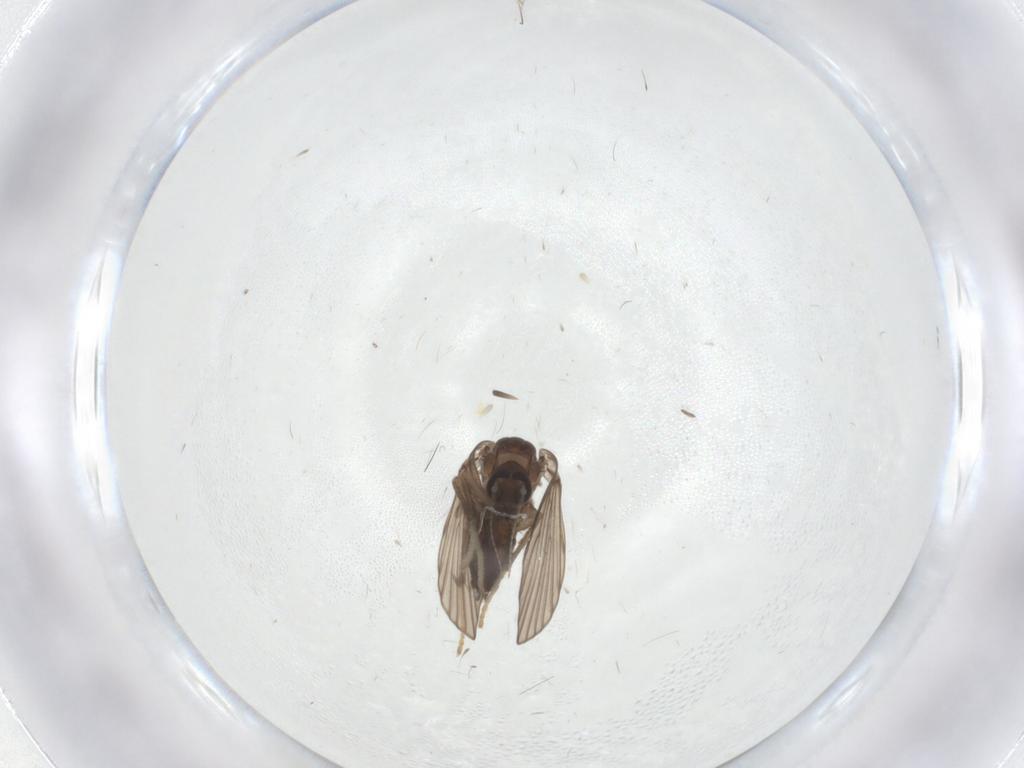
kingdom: Animalia
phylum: Arthropoda
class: Insecta
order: Diptera
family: Psychodidae
